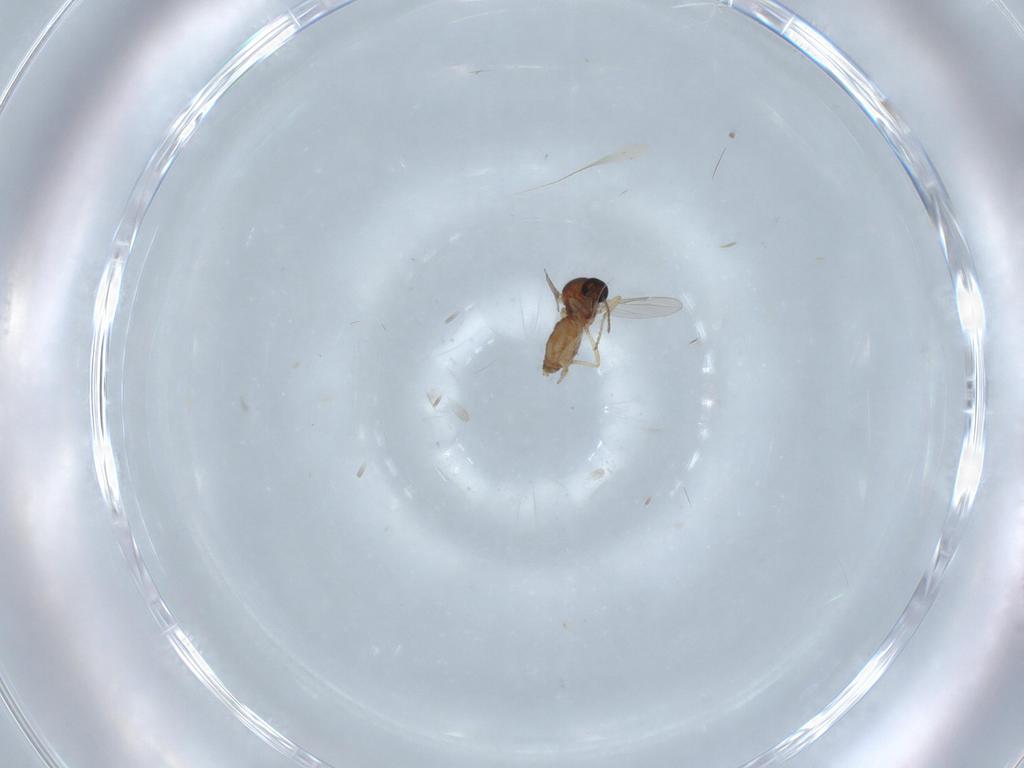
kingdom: Animalia
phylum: Arthropoda
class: Insecta
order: Diptera
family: Ceratopogonidae
